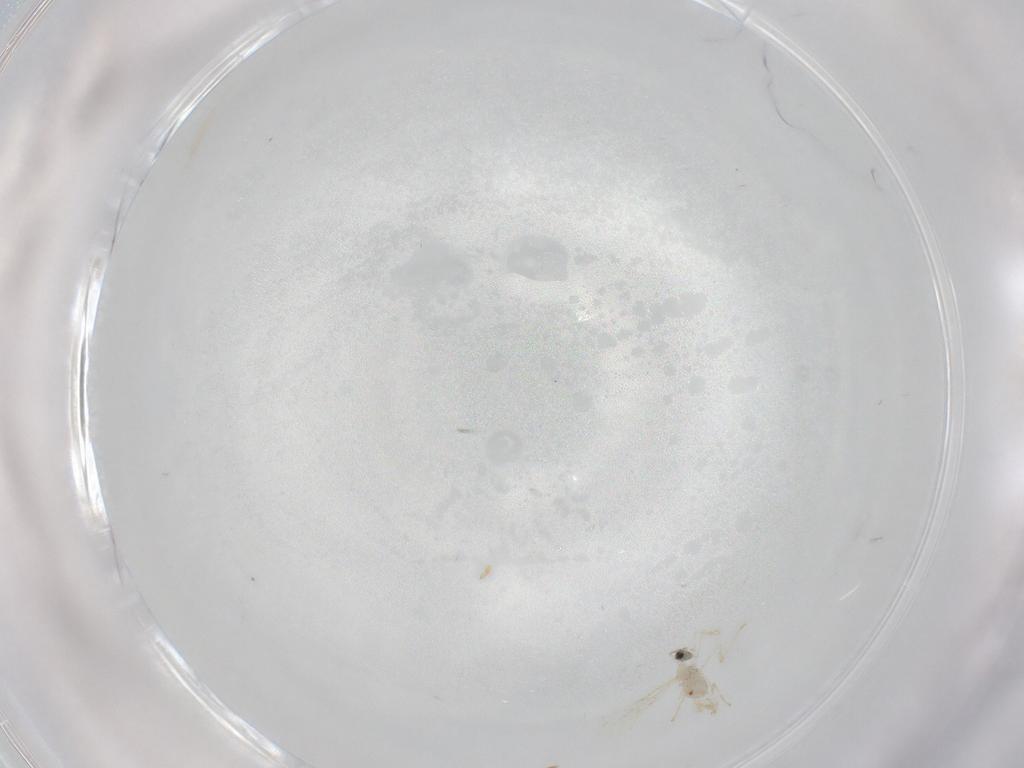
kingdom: Animalia
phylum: Arthropoda
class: Insecta
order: Diptera
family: Cecidomyiidae
